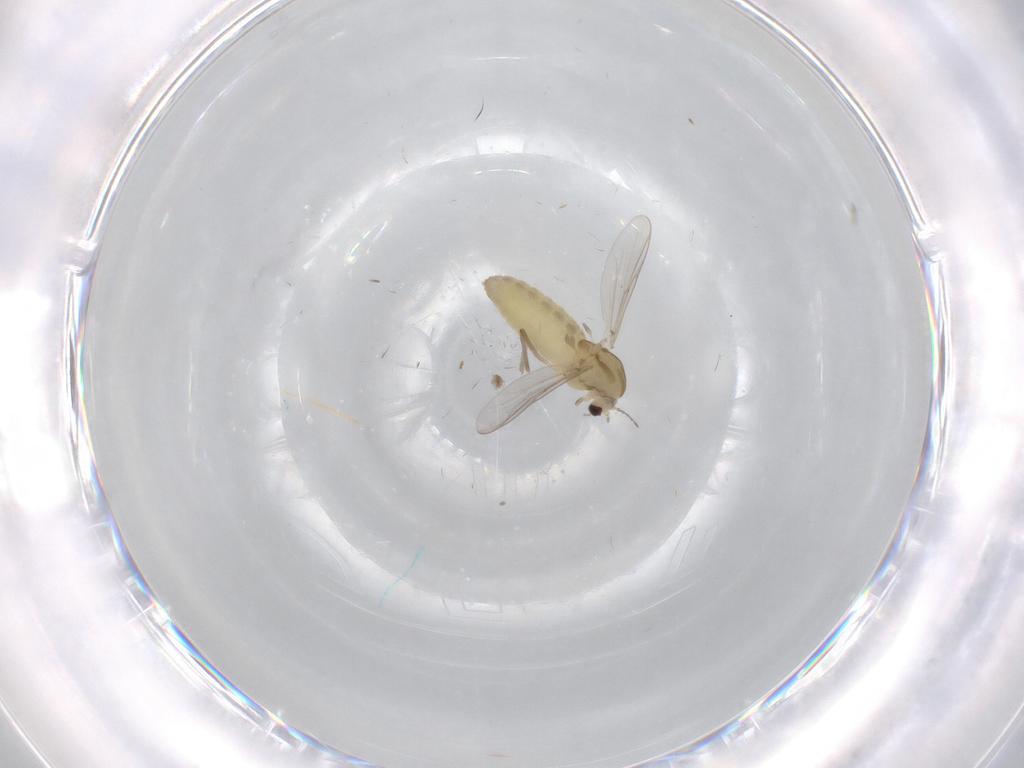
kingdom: Animalia
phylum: Arthropoda
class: Insecta
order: Diptera
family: Chironomidae
